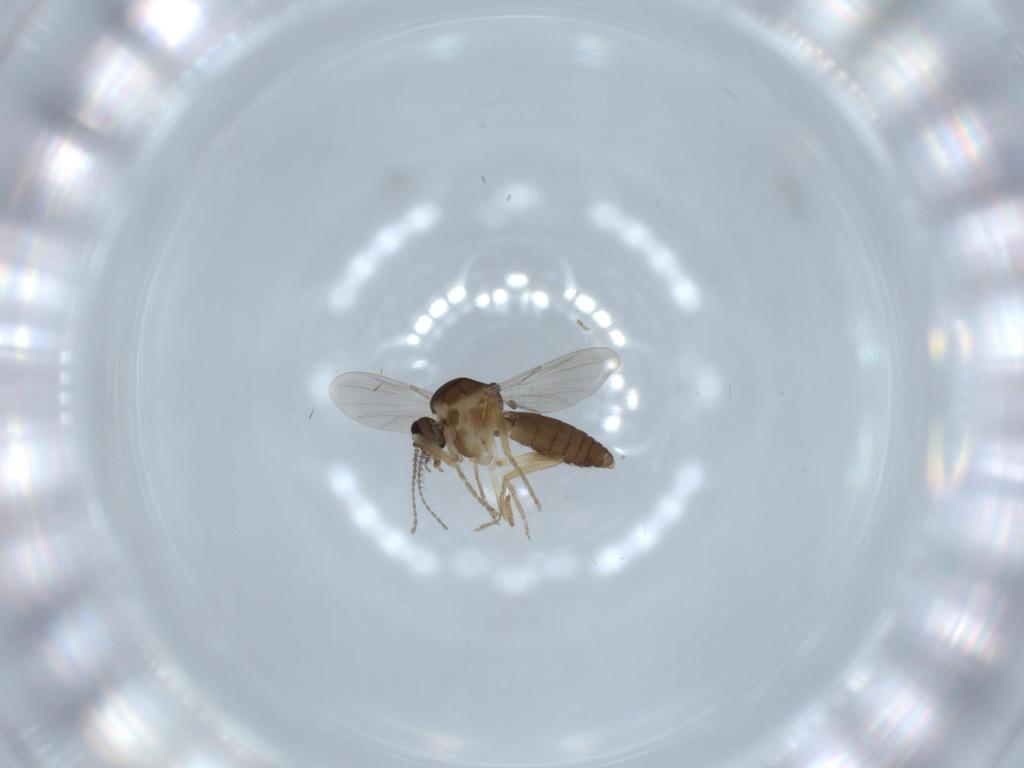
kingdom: Animalia
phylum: Arthropoda
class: Insecta
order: Diptera
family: Ceratopogonidae
